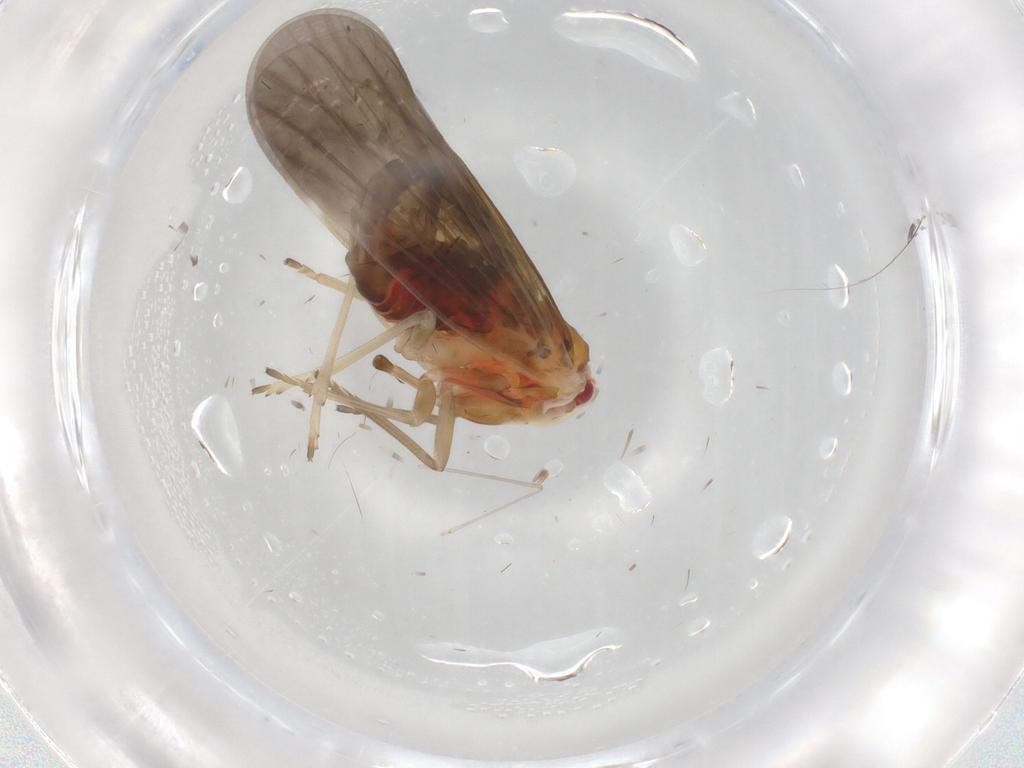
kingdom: Animalia
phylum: Arthropoda
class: Insecta
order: Hemiptera
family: Derbidae
